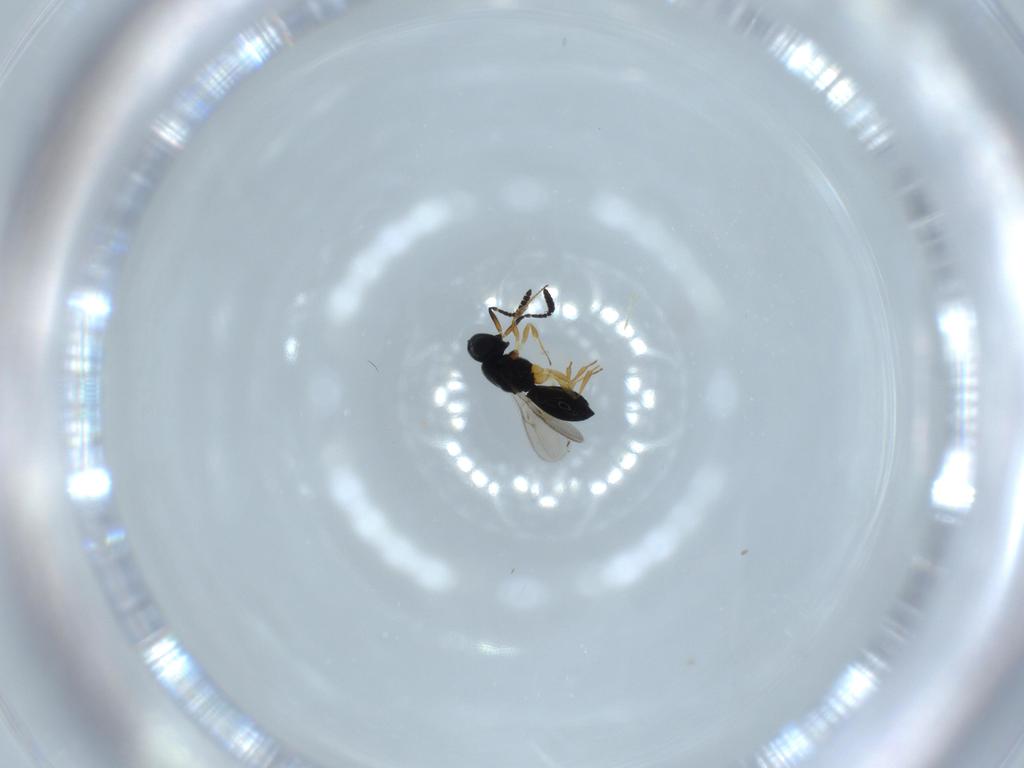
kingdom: Animalia
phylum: Arthropoda
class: Insecta
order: Hymenoptera
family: Scelionidae
